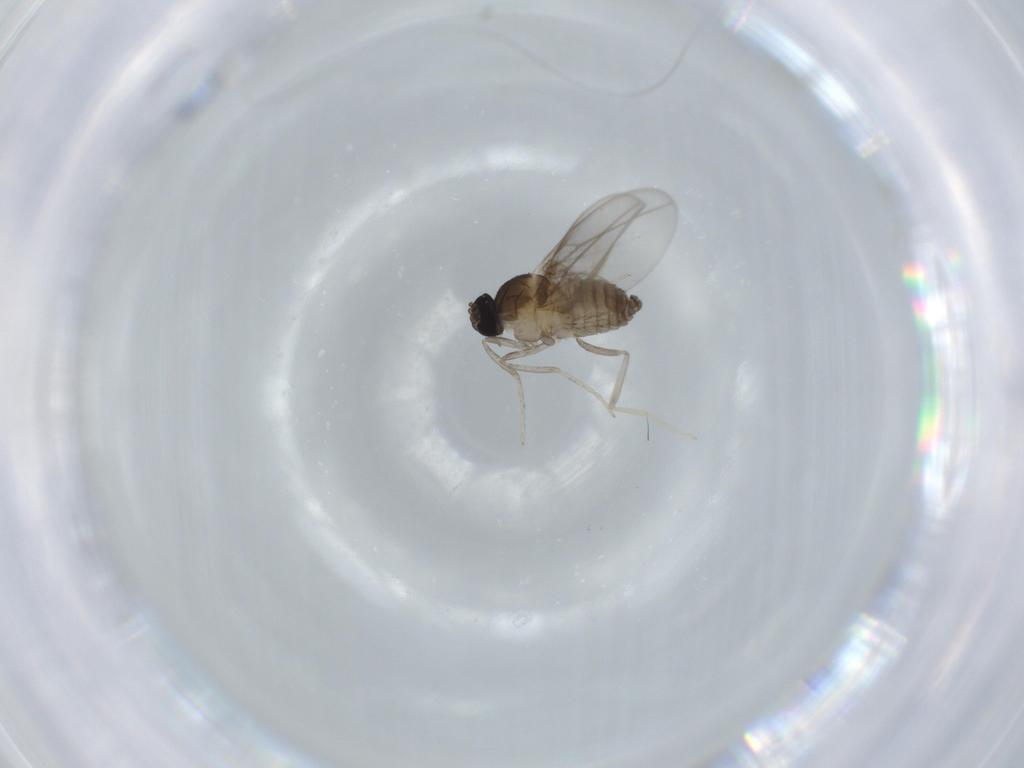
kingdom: Animalia
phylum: Arthropoda
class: Insecta
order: Diptera
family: Cecidomyiidae
